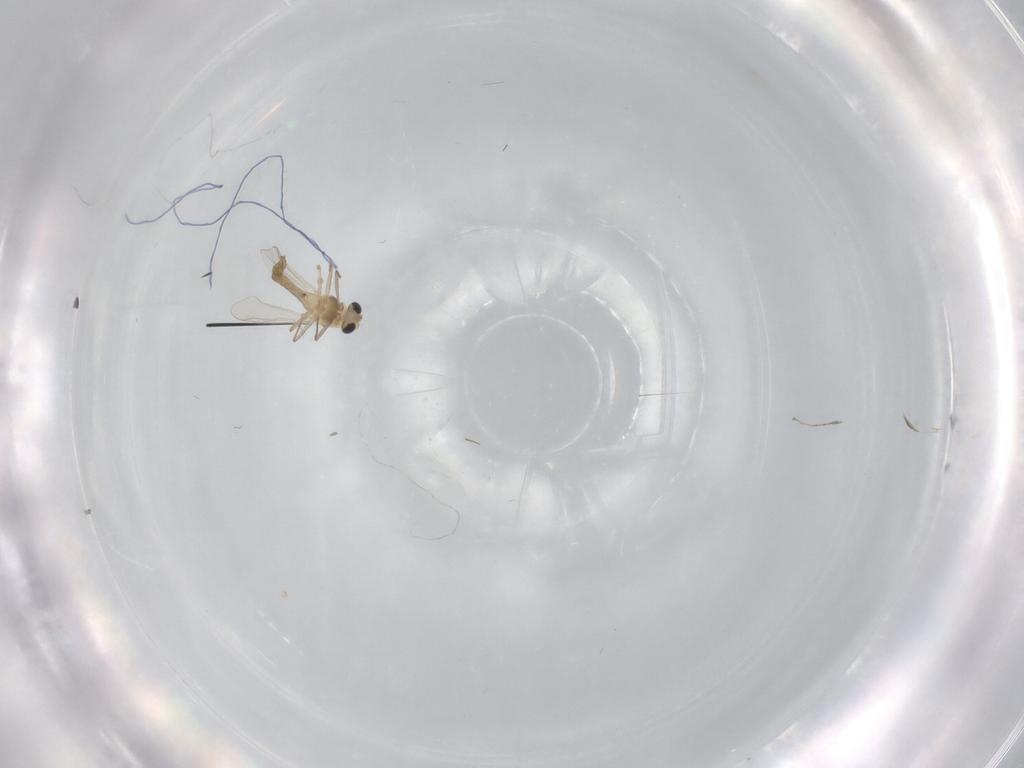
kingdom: Animalia
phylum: Arthropoda
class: Insecta
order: Diptera
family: Chironomidae
